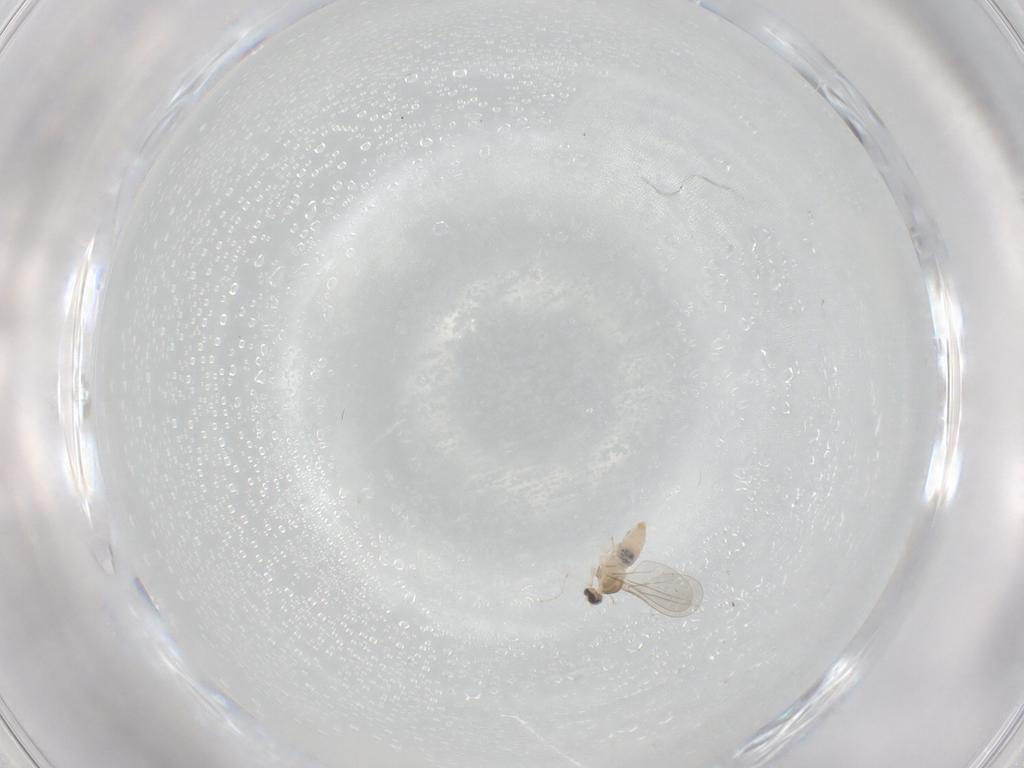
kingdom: Animalia
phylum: Arthropoda
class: Insecta
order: Diptera
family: Cecidomyiidae
